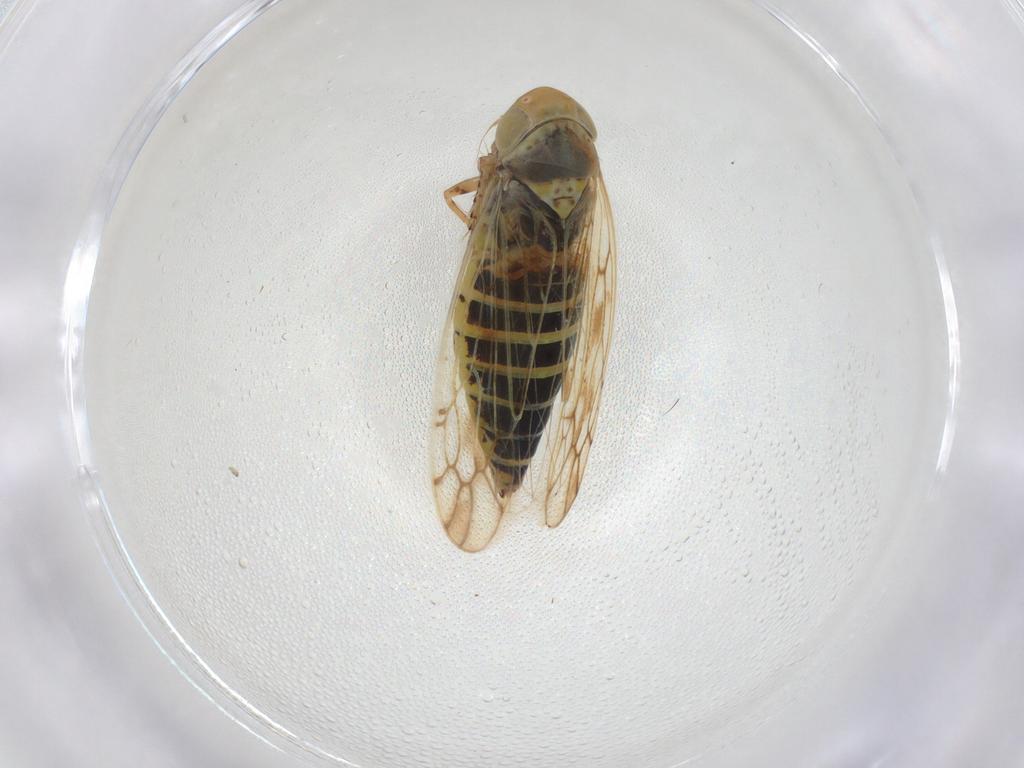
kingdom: Animalia
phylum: Arthropoda
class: Insecta
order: Hemiptera
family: Cicadellidae
